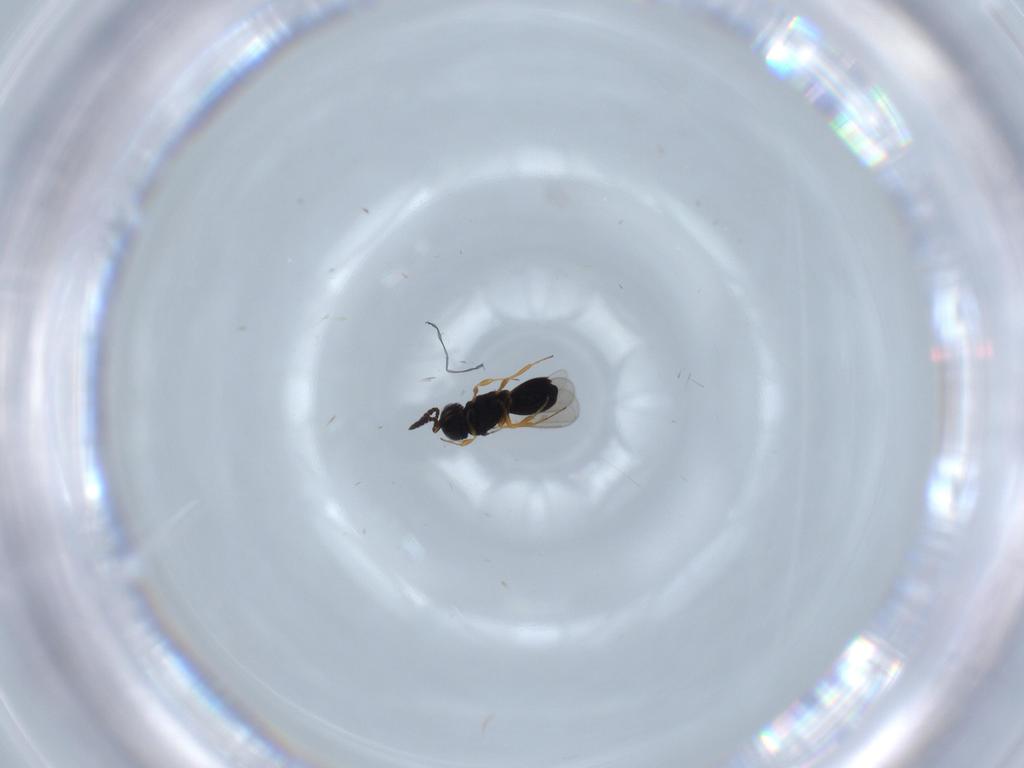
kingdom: Animalia
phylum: Arthropoda
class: Insecta
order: Hymenoptera
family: Scelionidae
